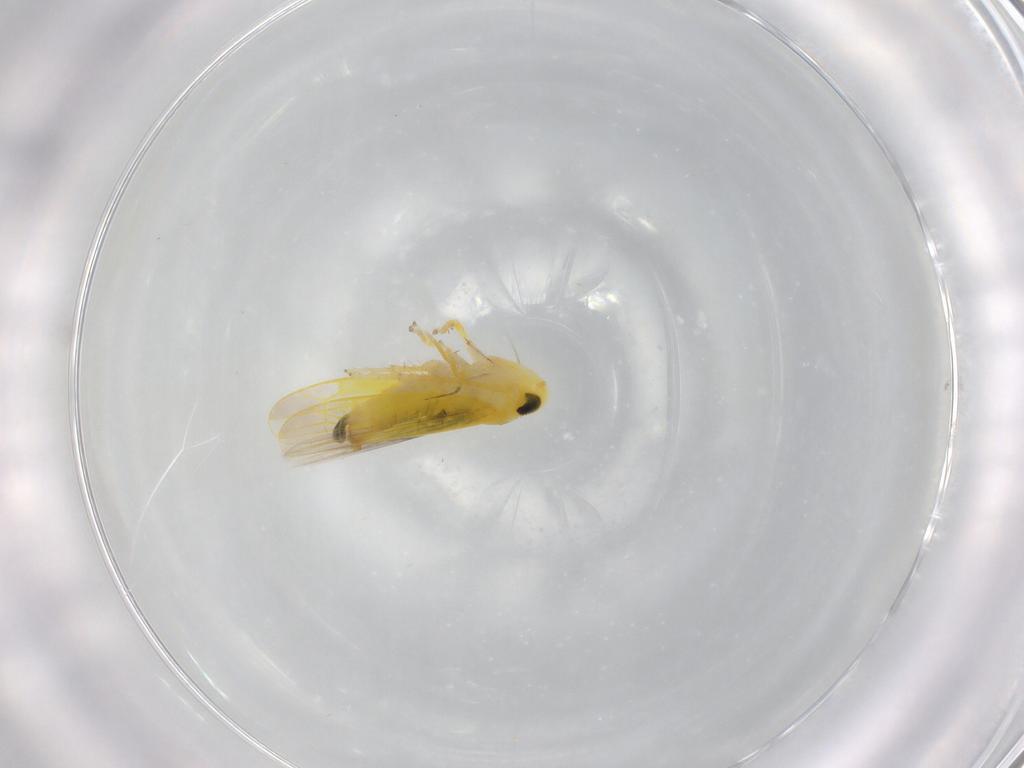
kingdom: Animalia
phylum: Arthropoda
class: Insecta
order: Hemiptera
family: Cicadellidae
